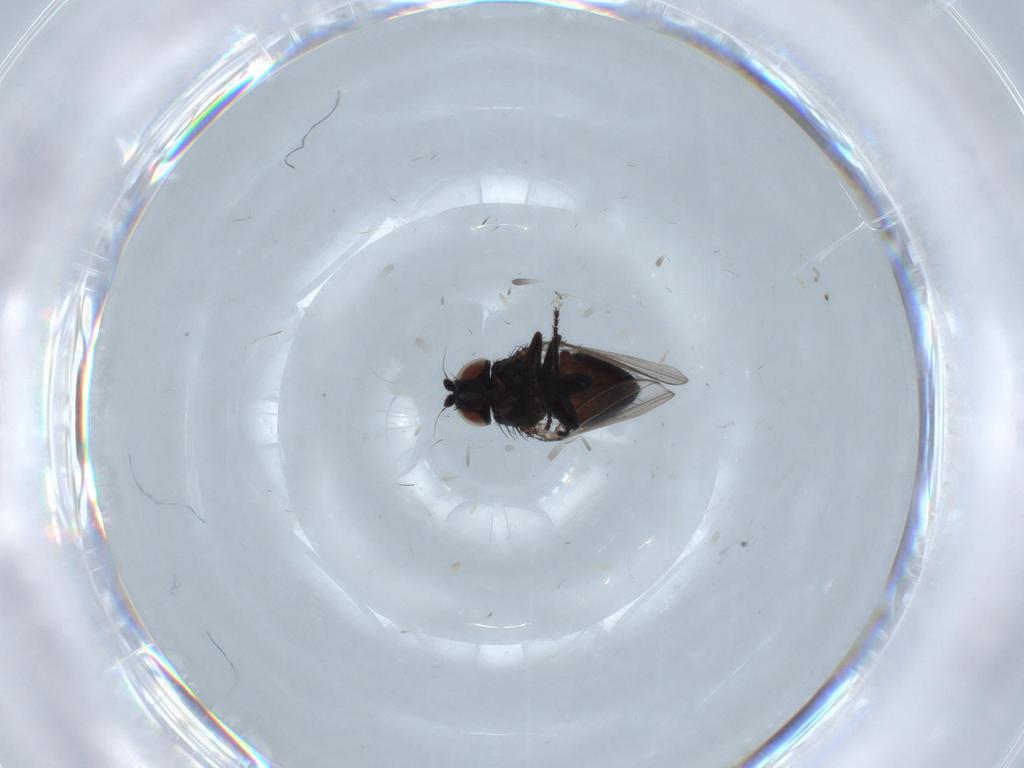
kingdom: Animalia
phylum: Arthropoda
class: Insecta
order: Diptera
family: Milichiidae
